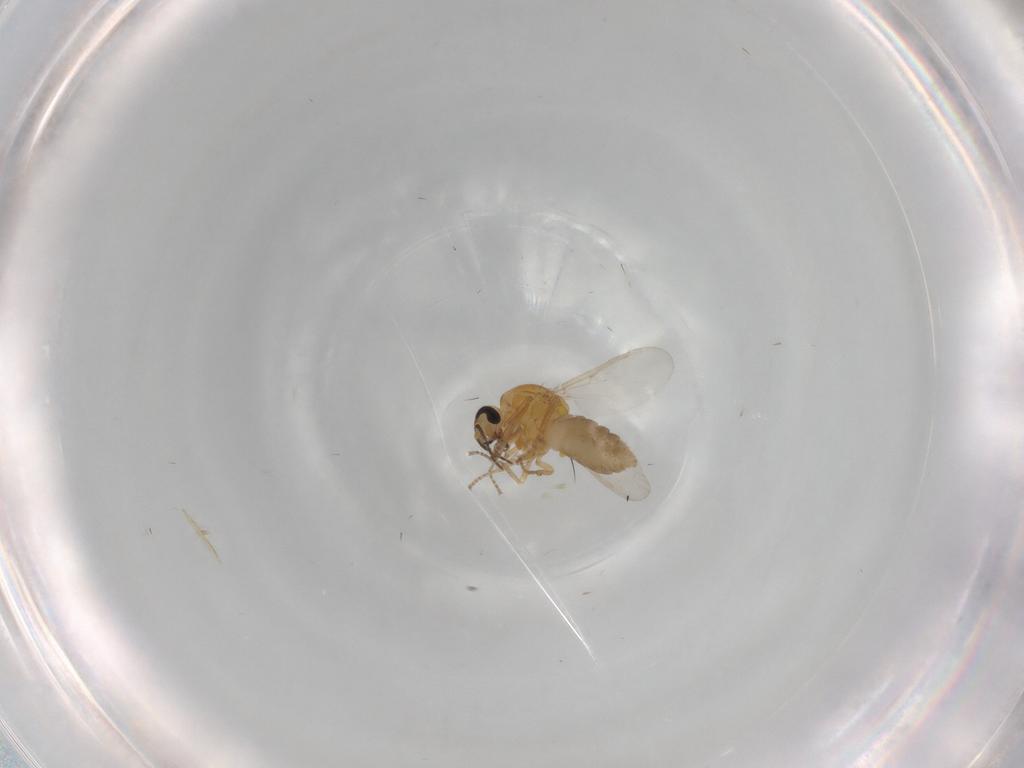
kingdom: Animalia
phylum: Arthropoda
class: Insecta
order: Diptera
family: Chironomidae
